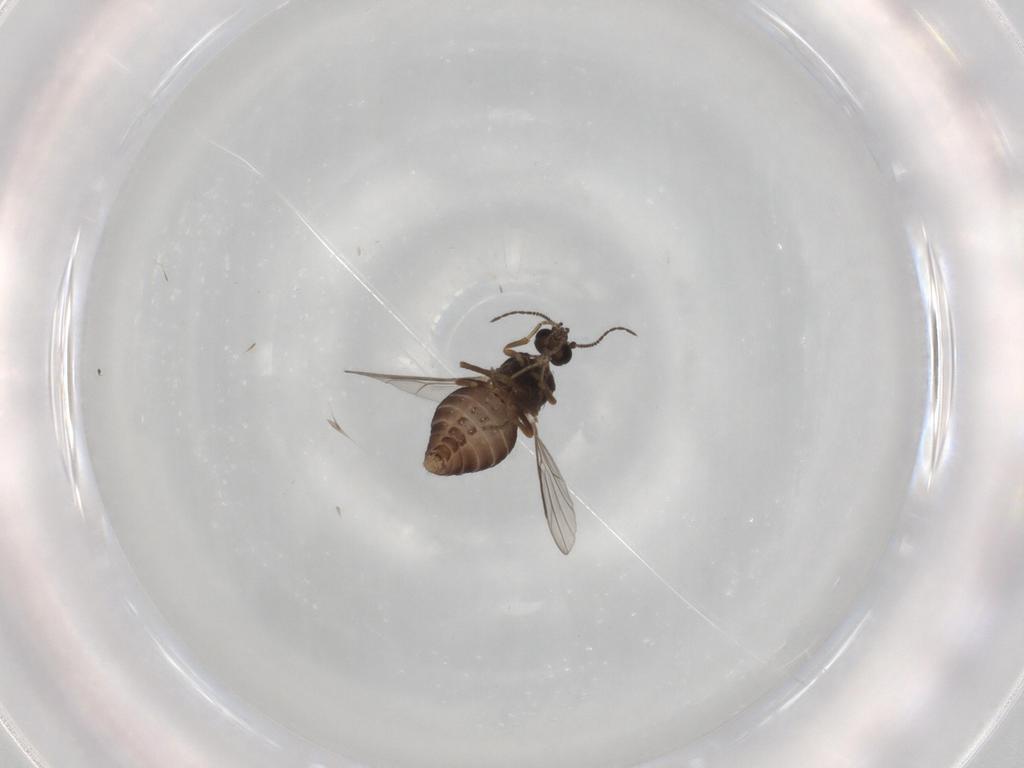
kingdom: Animalia
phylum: Arthropoda
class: Insecta
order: Diptera
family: Ceratopogonidae
